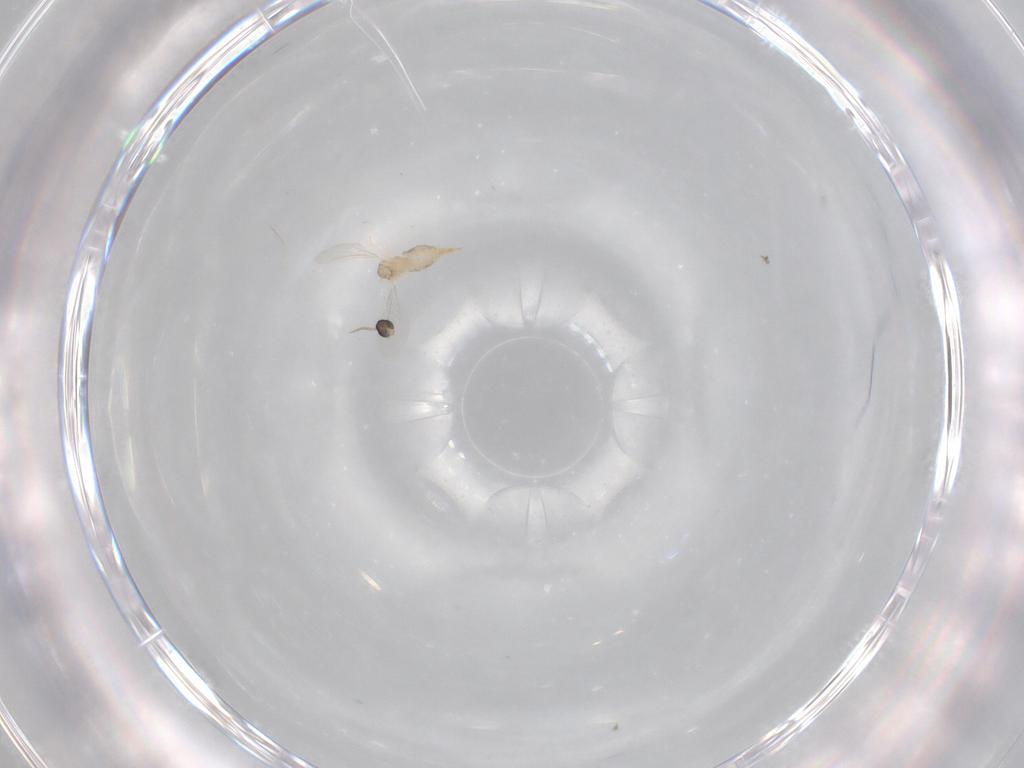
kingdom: Animalia
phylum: Arthropoda
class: Insecta
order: Diptera
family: Cecidomyiidae
